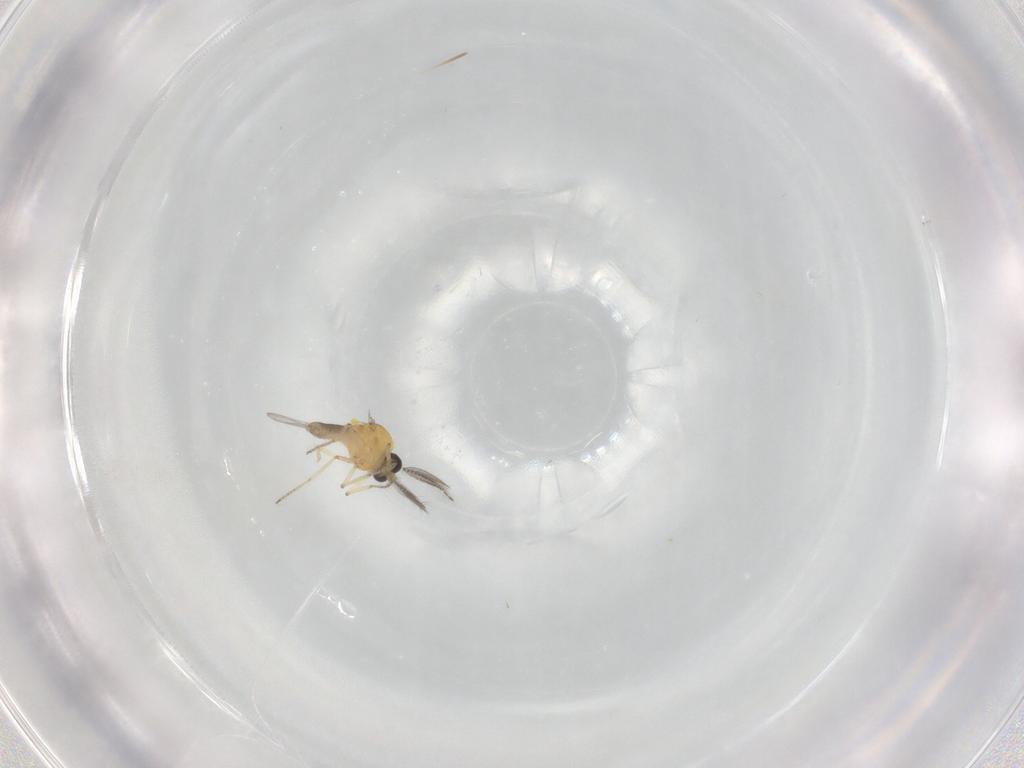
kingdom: Animalia
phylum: Arthropoda
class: Insecta
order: Diptera
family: Ceratopogonidae
